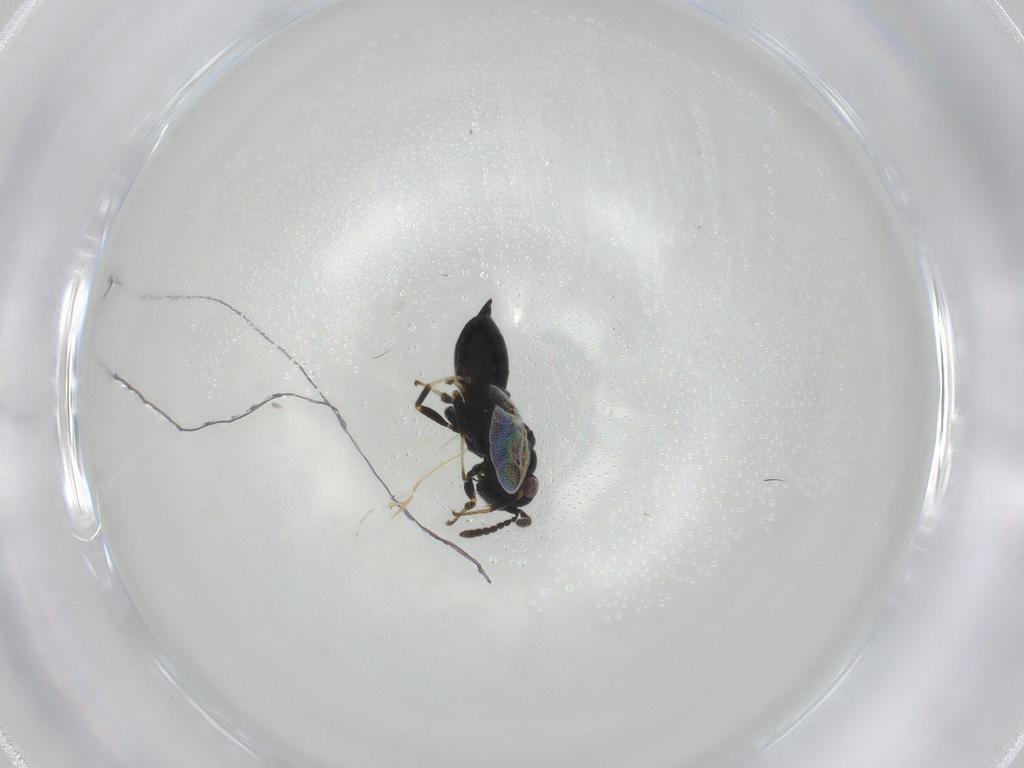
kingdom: Animalia
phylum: Arthropoda
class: Insecta
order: Hymenoptera
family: Eurytomidae
